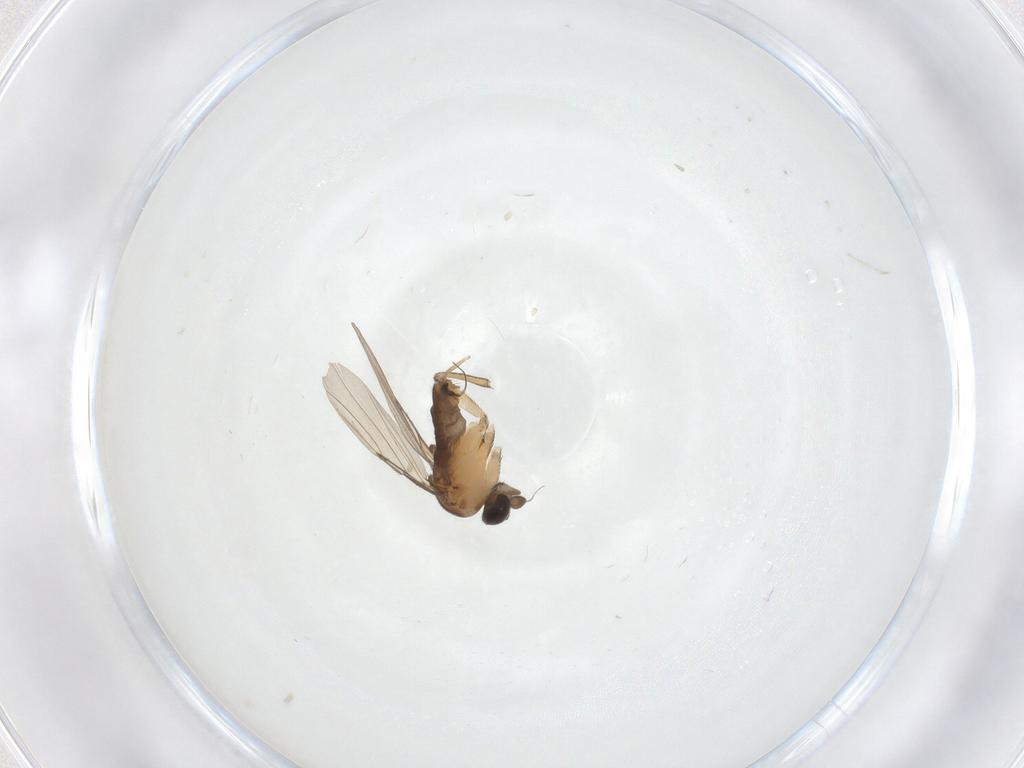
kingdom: Animalia
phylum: Arthropoda
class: Insecta
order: Diptera
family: Phoridae
